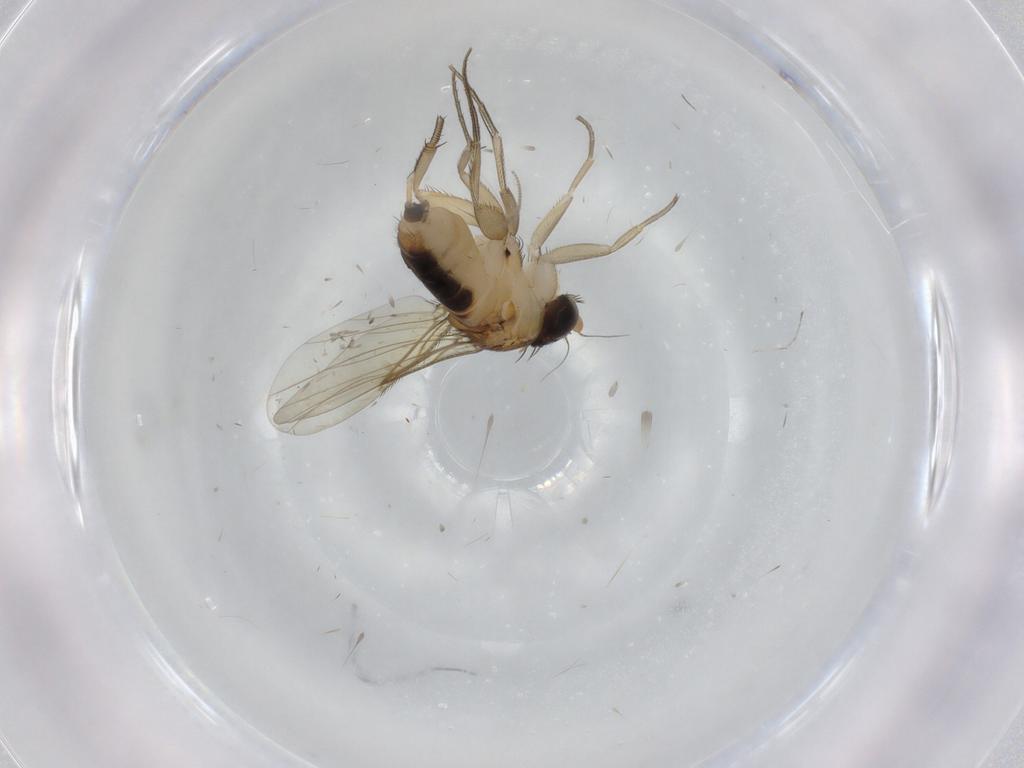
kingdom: Animalia
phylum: Arthropoda
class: Insecta
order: Diptera
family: Phoridae
